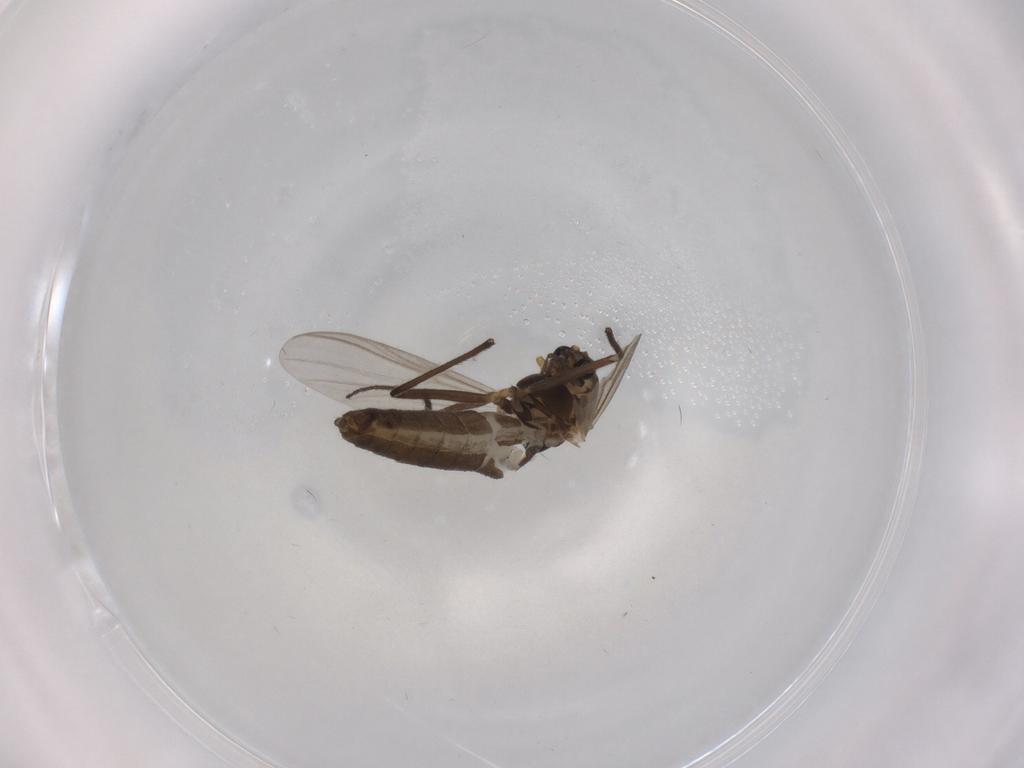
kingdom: Animalia
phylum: Arthropoda
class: Insecta
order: Diptera
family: Chironomidae
